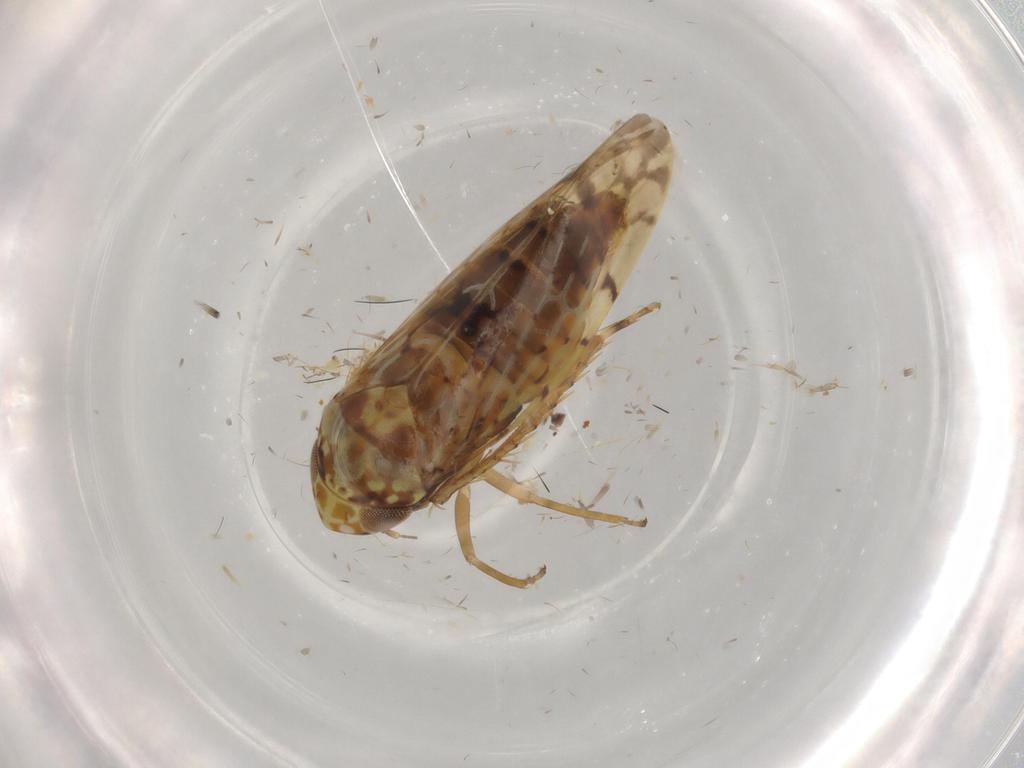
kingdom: Animalia
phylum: Arthropoda
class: Insecta
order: Hemiptera
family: Cicadellidae
